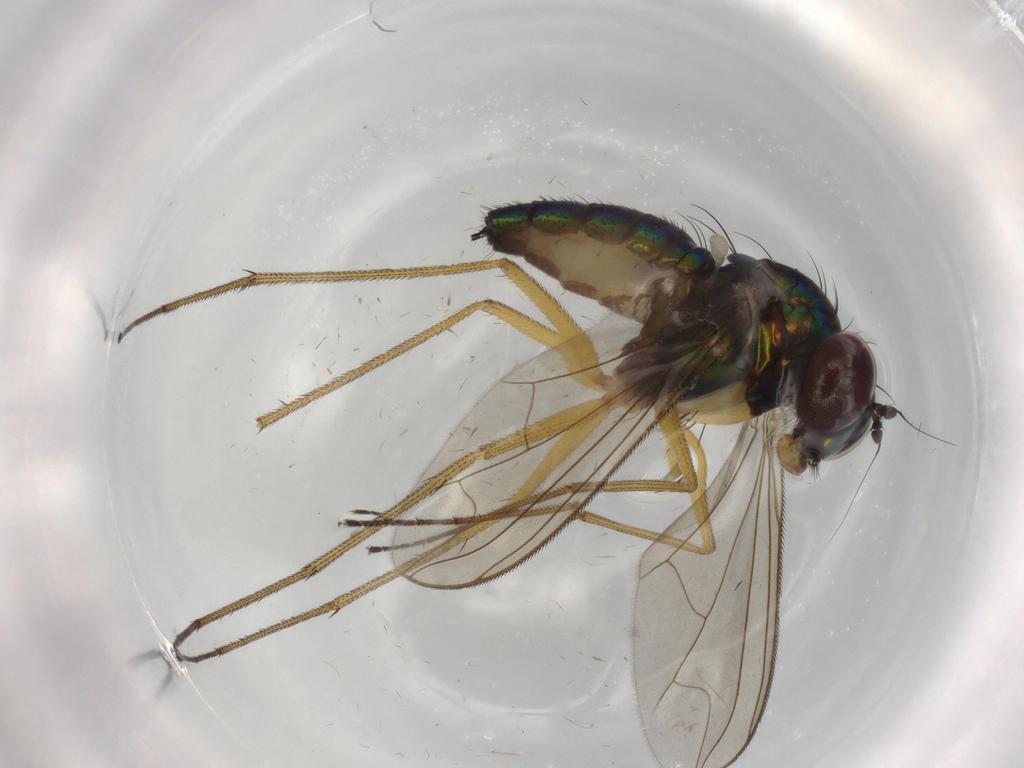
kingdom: Animalia
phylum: Arthropoda
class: Insecta
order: Diptera
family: Dolichopodidae
